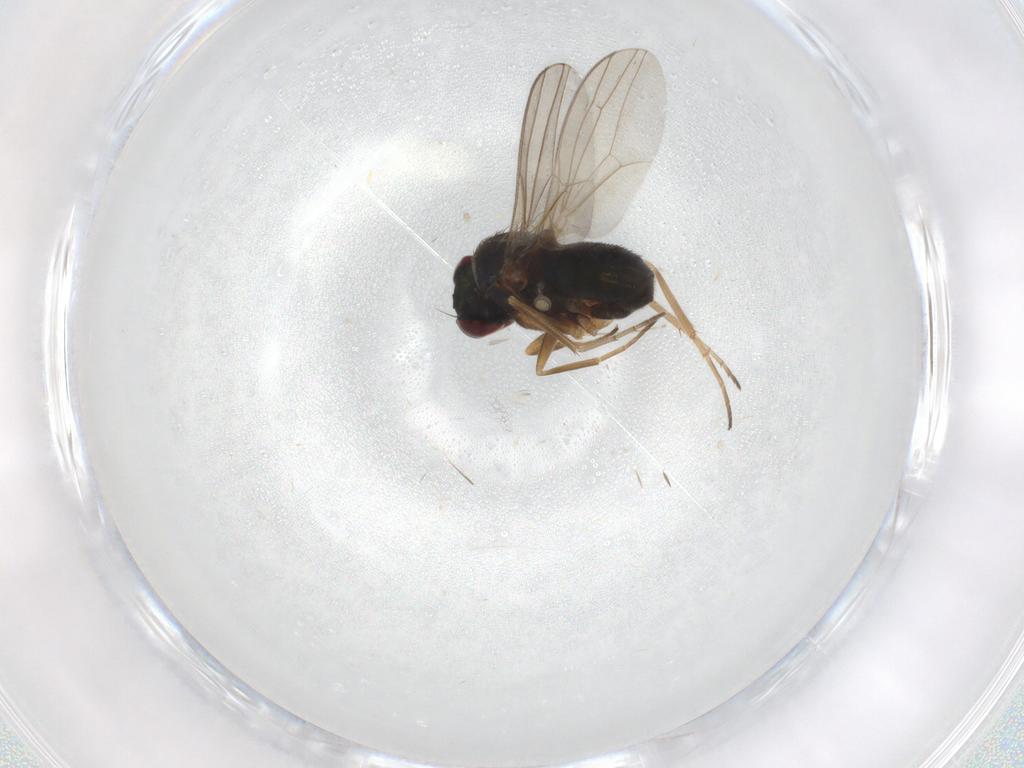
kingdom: Animalia
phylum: Arthropoda
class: Insecta
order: Diptera
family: Dolichopodidae
